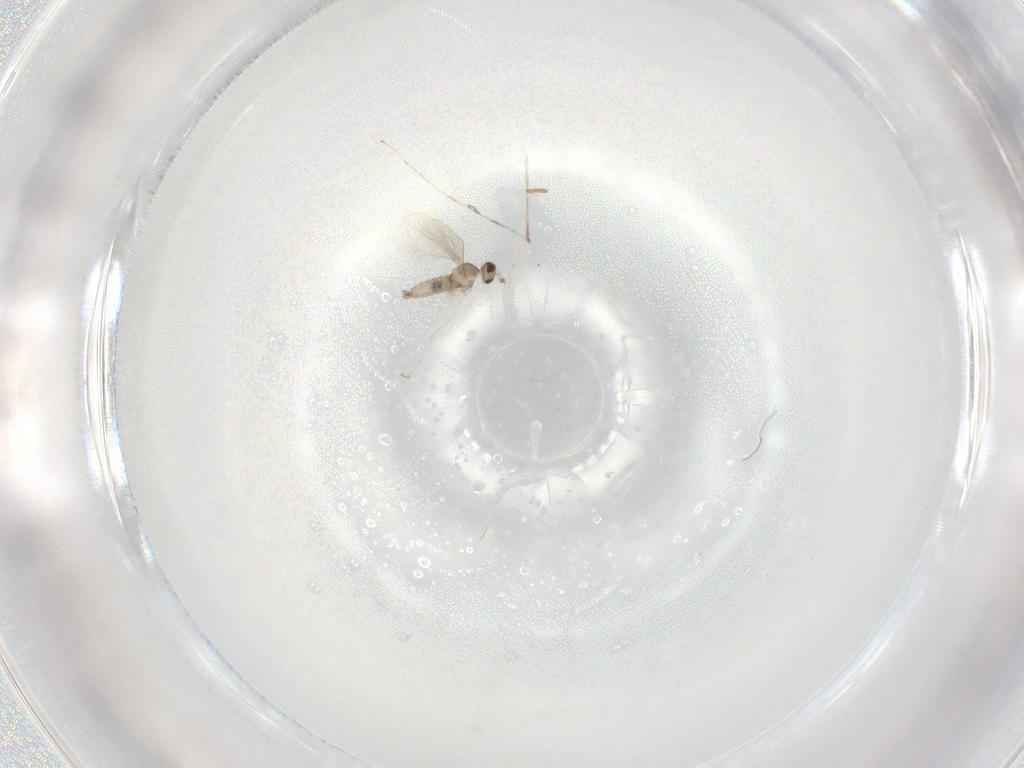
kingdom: Animalia
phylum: Arthropoda
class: Insecta
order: Diptera
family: Cecidomyiidae
